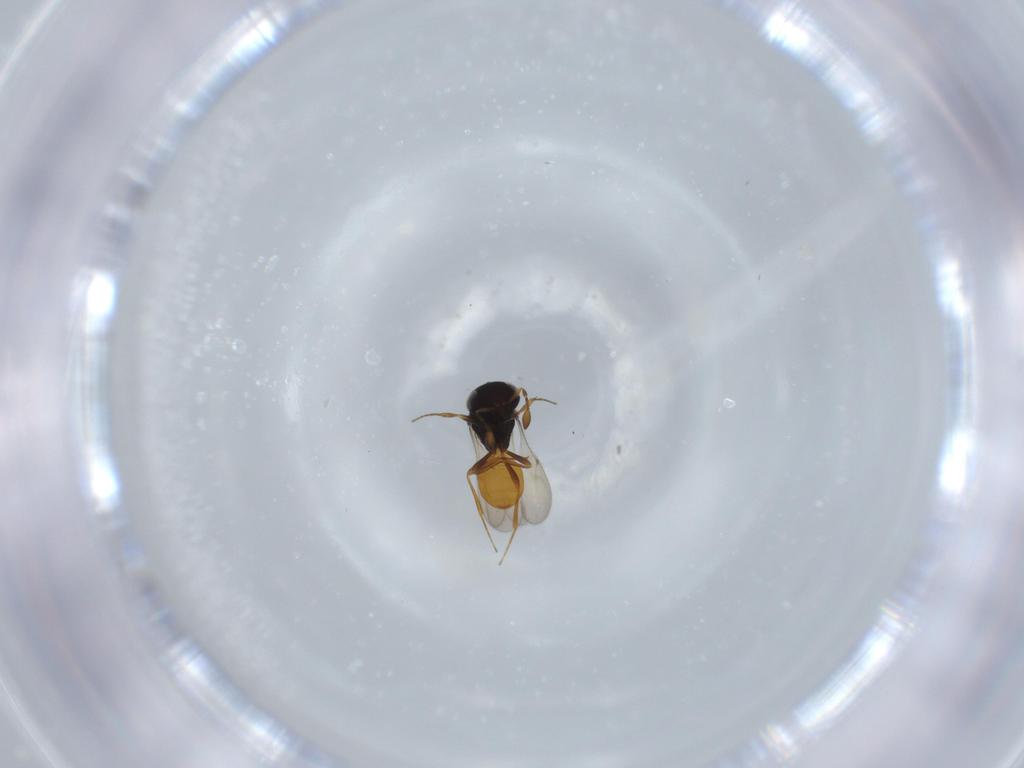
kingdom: Animalia
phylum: Arthropoda
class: Insecta
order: Hymenoptera
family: Scelionidae
